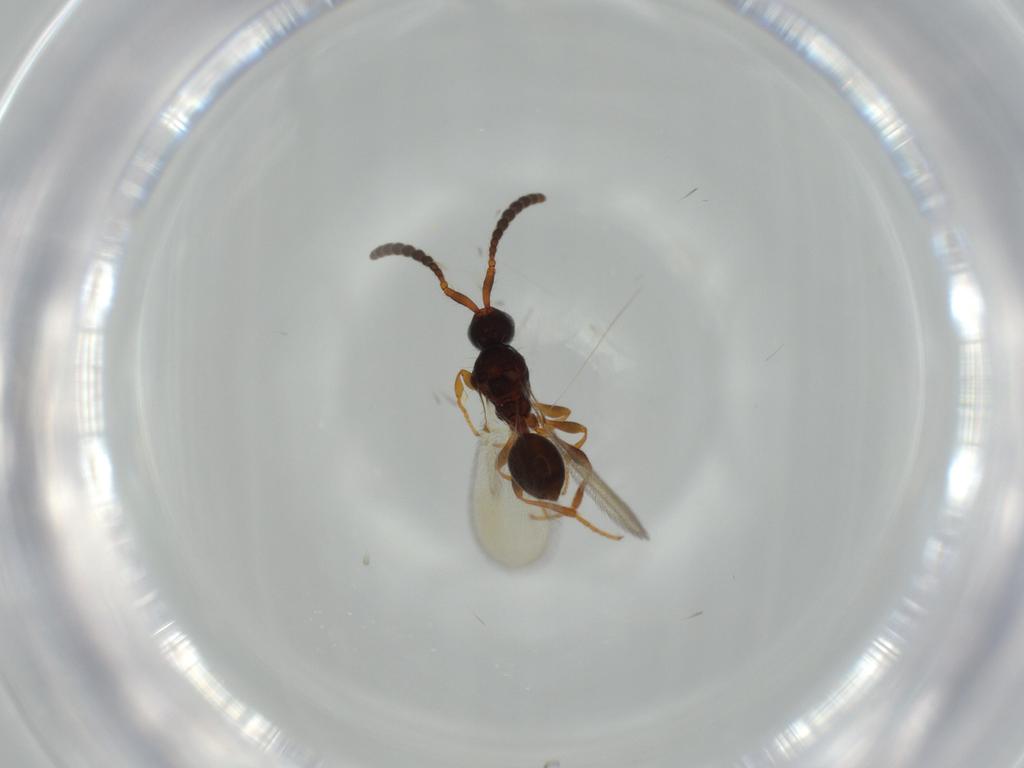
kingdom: Animalia
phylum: Arthropoda
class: Insecta
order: Hymenoptera
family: Diapriidae
